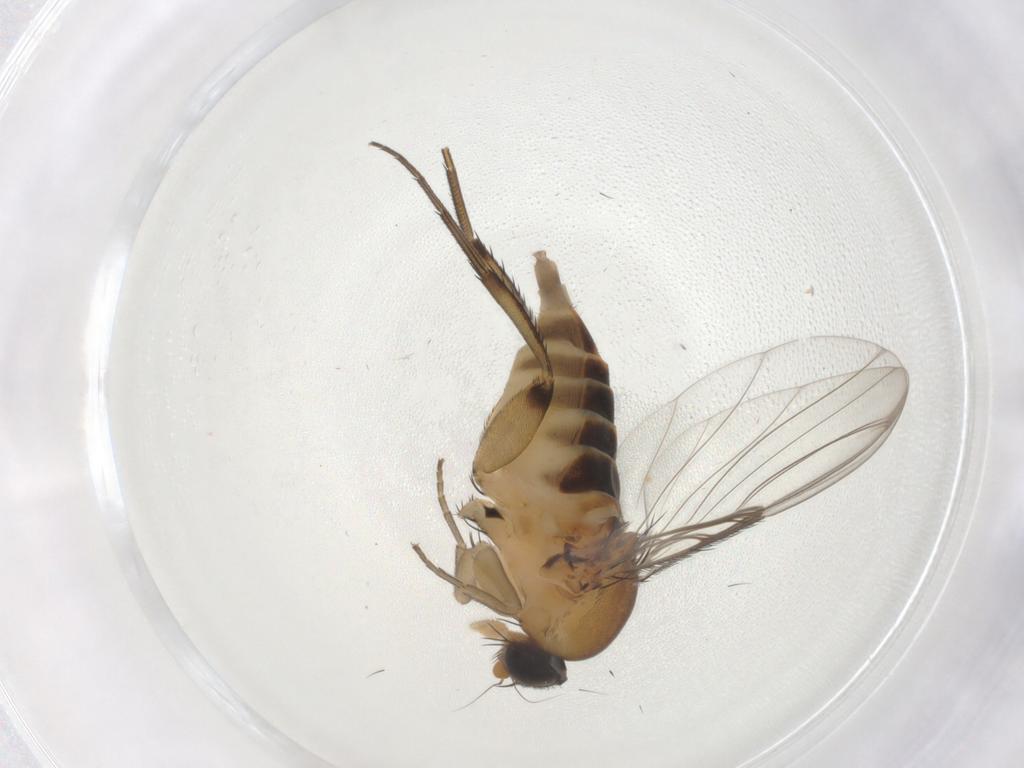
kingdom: Animalia
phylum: Arthropoda
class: Insecta
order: Diptera
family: Phoridae
